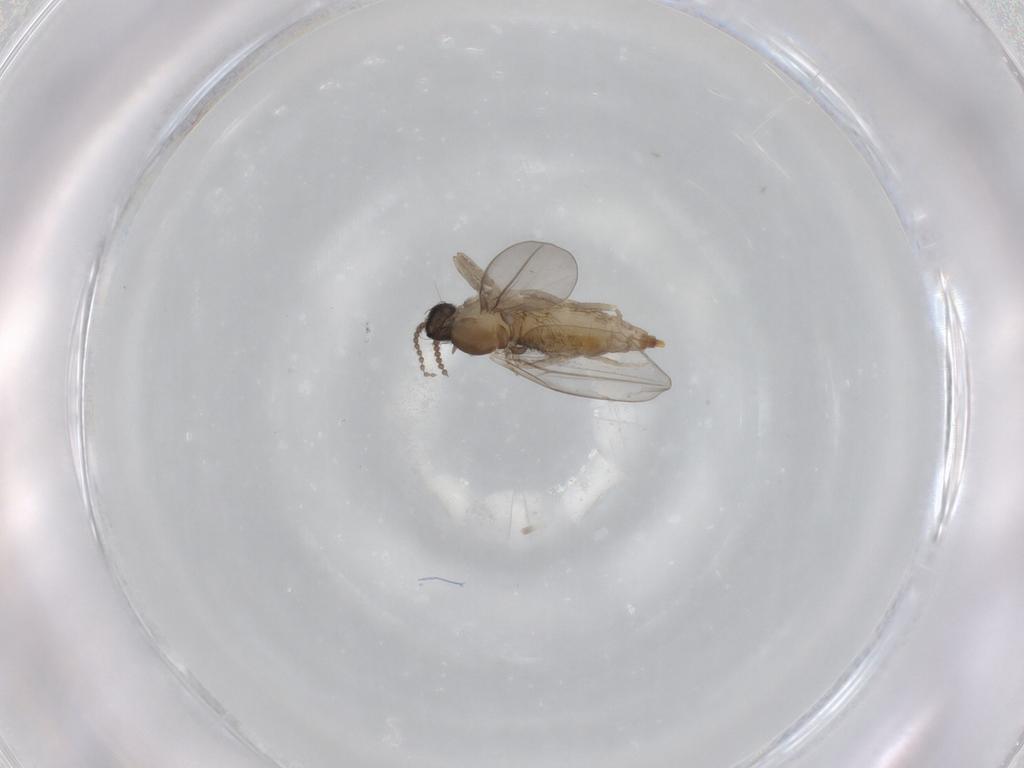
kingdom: Animalia
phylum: Arthropoda
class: Insecta
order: Diptera
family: Cecidomyiidae
